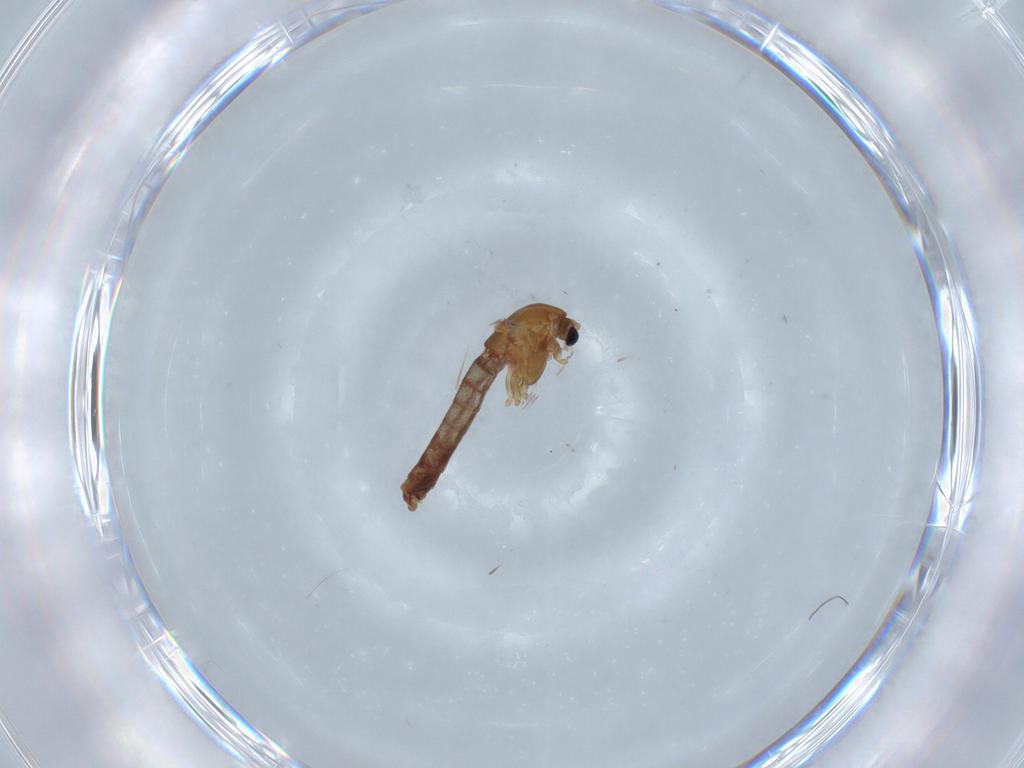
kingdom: Animalia
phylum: Arthropoda
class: Insecta
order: Diptera
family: Chironomidae
